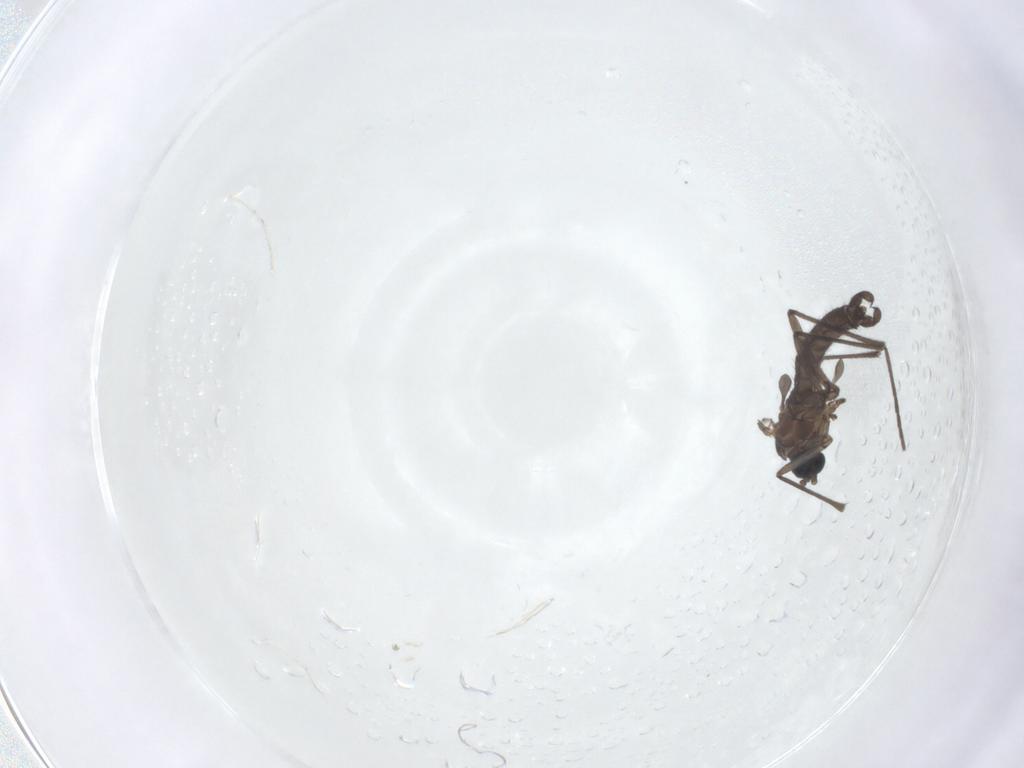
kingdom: Animalia
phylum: Arthropoda
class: Insecta
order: Diptera
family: Sciaridae
